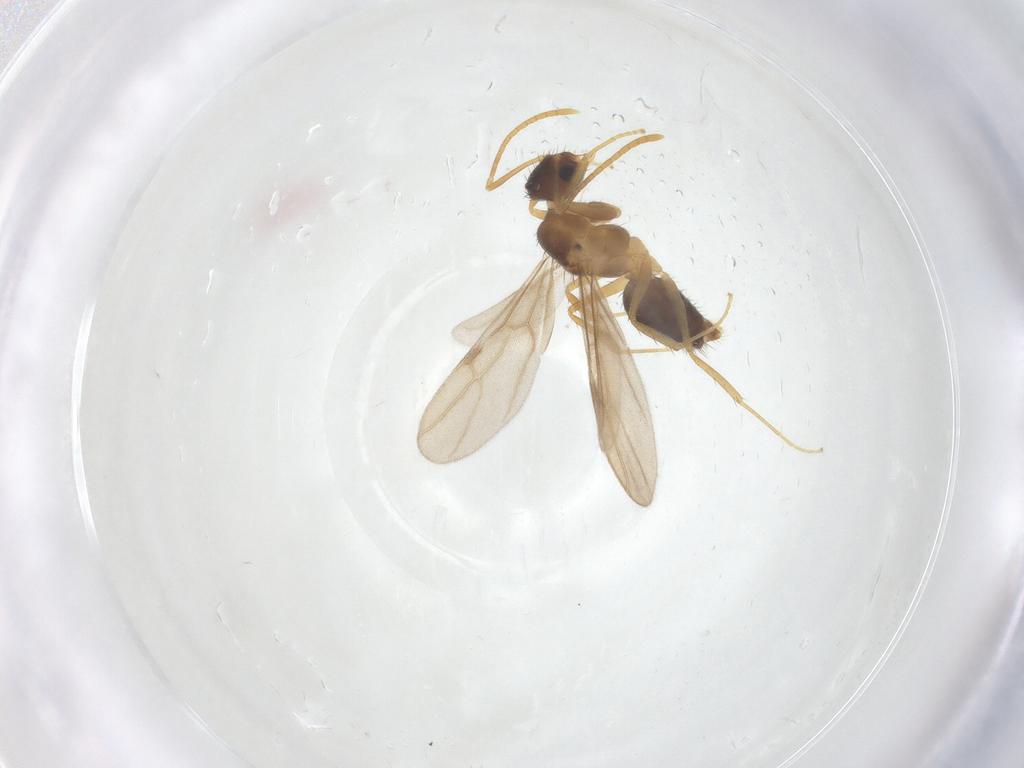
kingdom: Animalia
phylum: Arthropoda
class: Insecta
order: Hymenoptera
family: Formicidae
